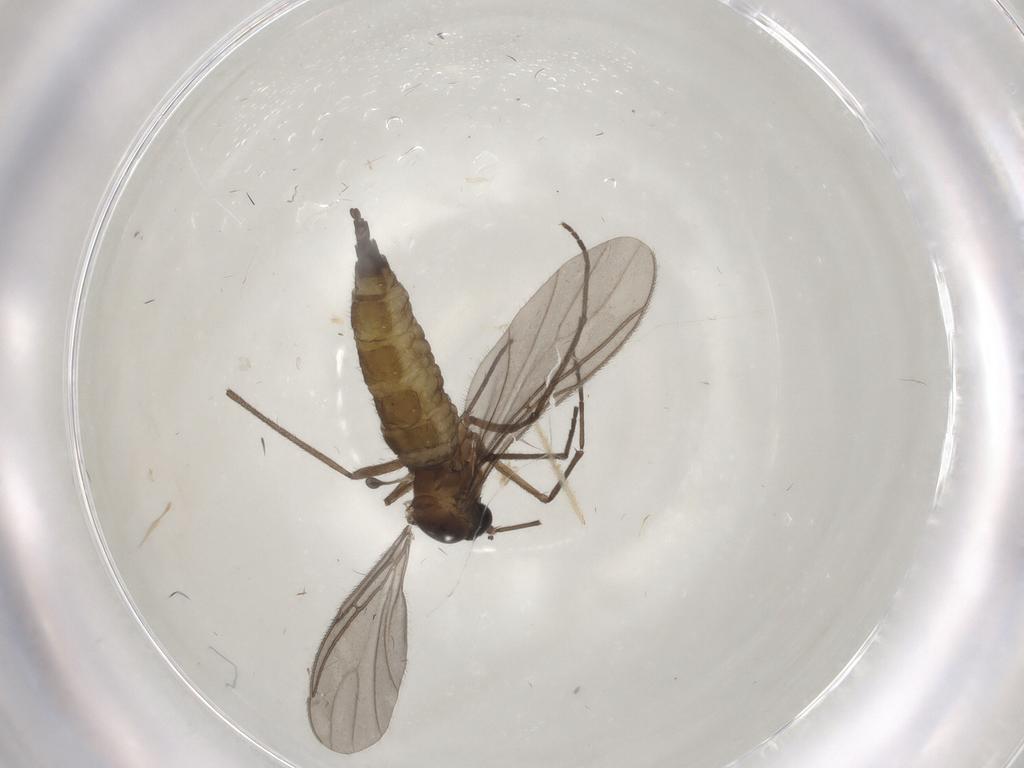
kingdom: Animalia
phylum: Arthropoda
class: Insecta
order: Diptera
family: Sciaridae
